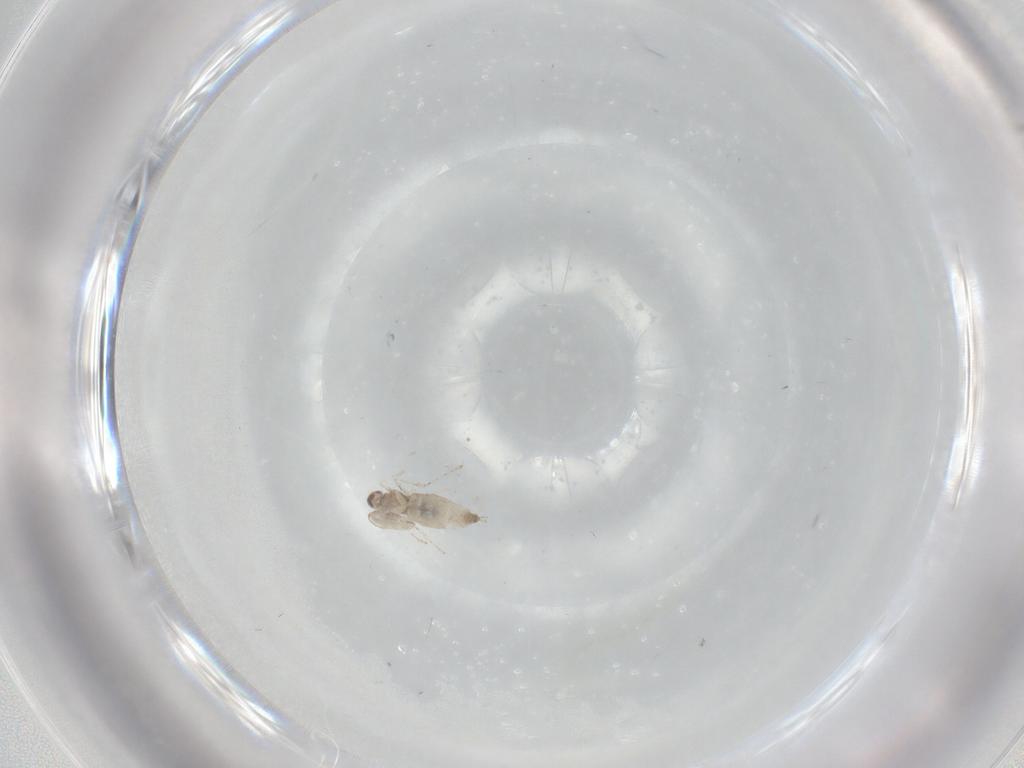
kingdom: Animalia
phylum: Arthropoda
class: Insecta
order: Diptera
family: Cecidomyiidae
